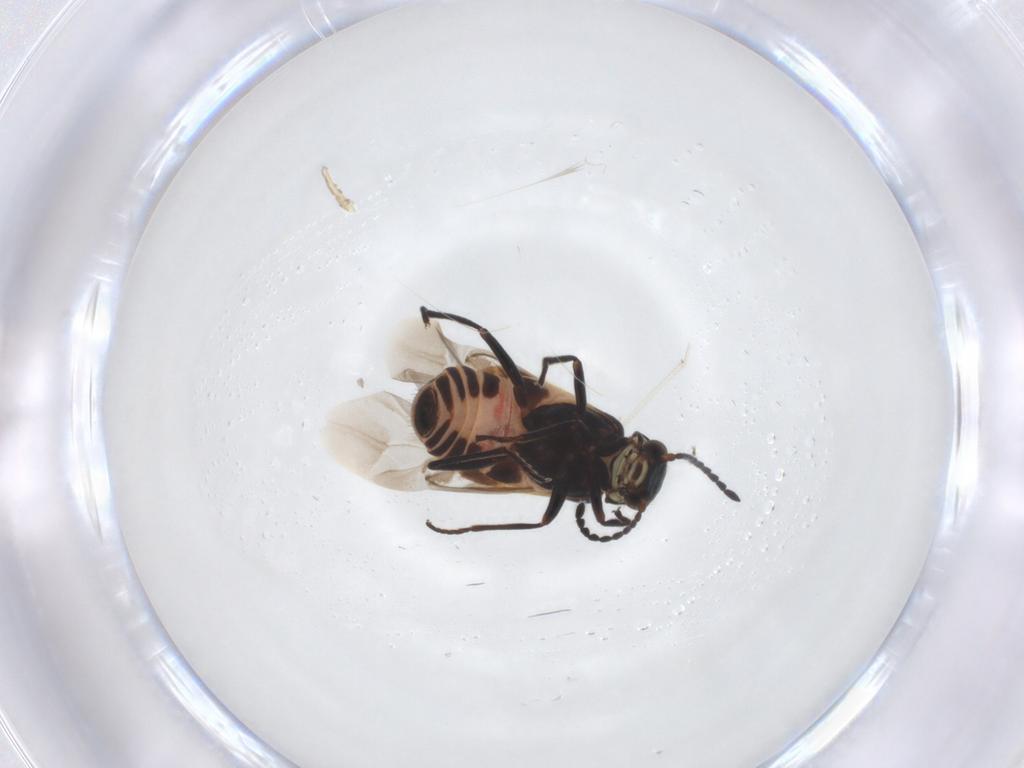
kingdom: Animalia
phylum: Arthropoda
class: Insecta
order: Coleoptera
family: Melyridae
